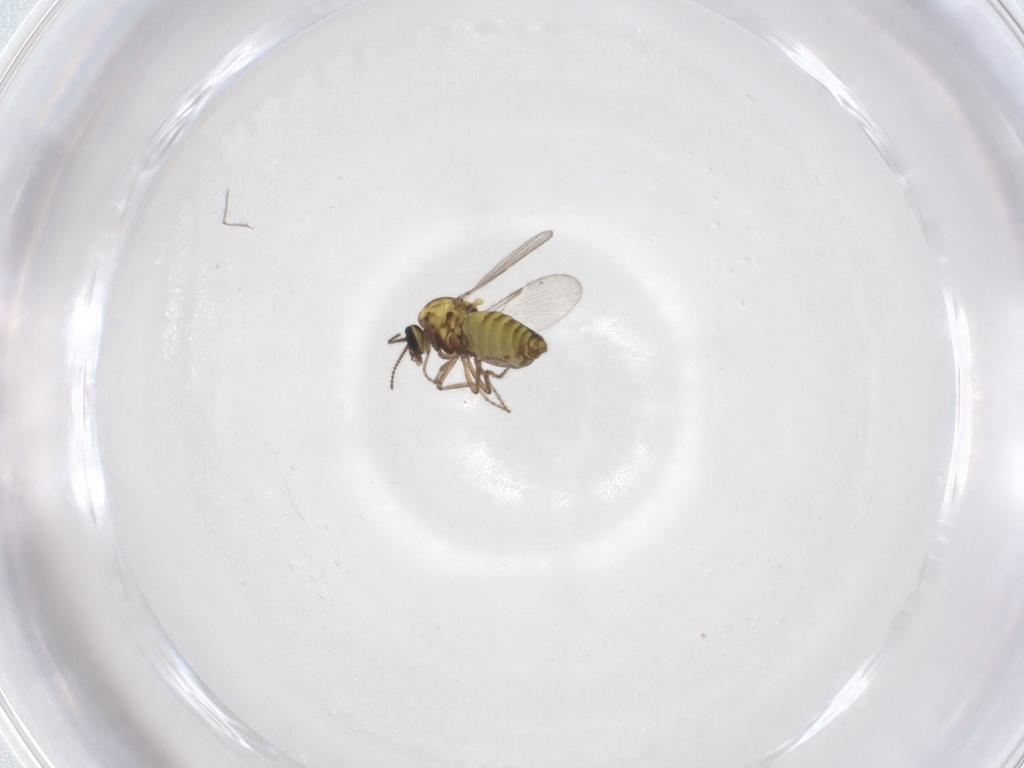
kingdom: Animalia
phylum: Arthropoda
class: Insecta
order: Diptera
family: Ceratopogonidae
